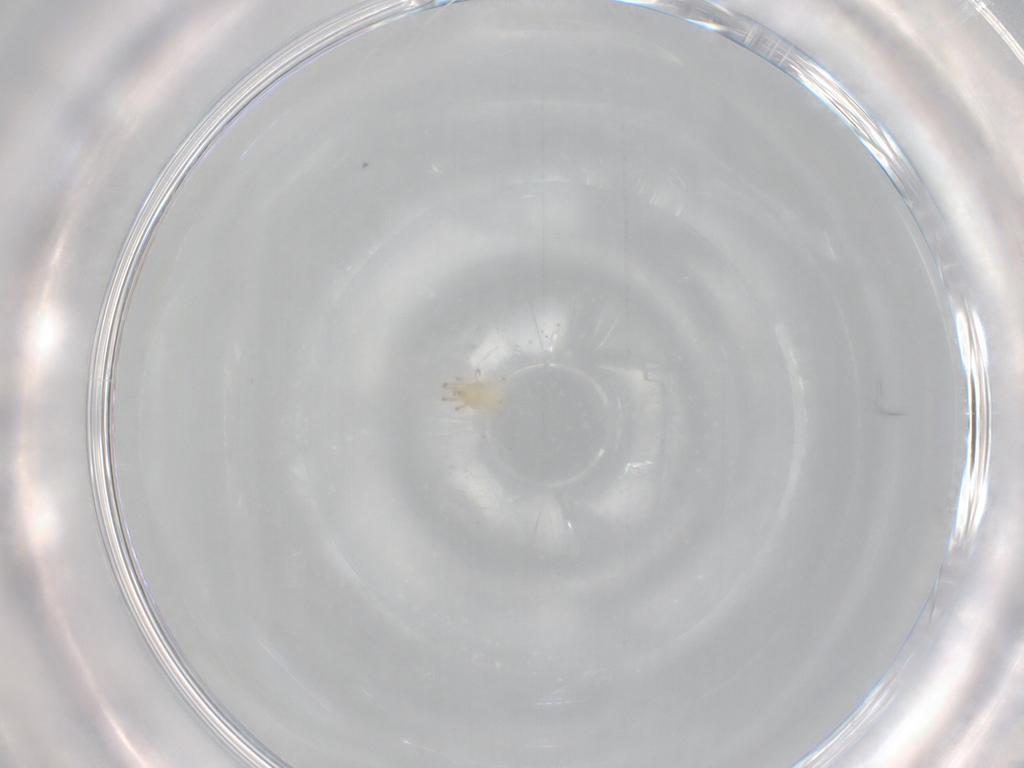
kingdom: Animalia
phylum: Arthropoda
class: Arachnida
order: Mesostigmata
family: Phytoseiidae
